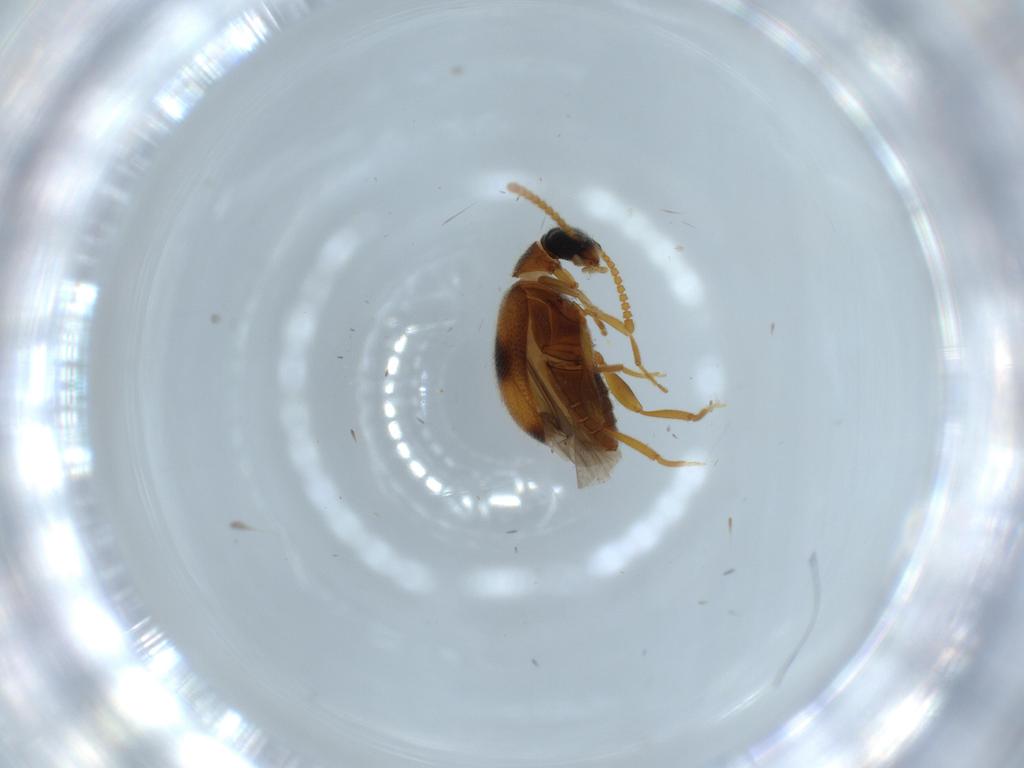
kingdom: Animalia
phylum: Arthropoda
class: Insecta
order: Coleoptera
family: Aderidae
